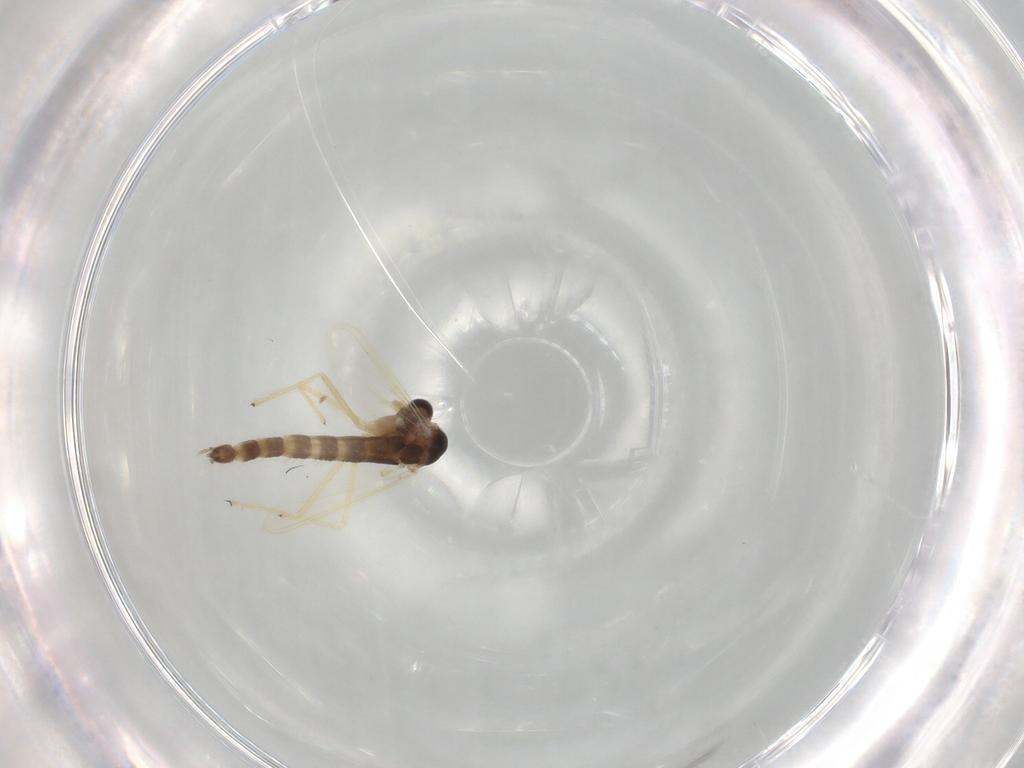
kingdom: Animalia
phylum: Arthropoda
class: Insecta
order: Diptera
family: Chironomidae
